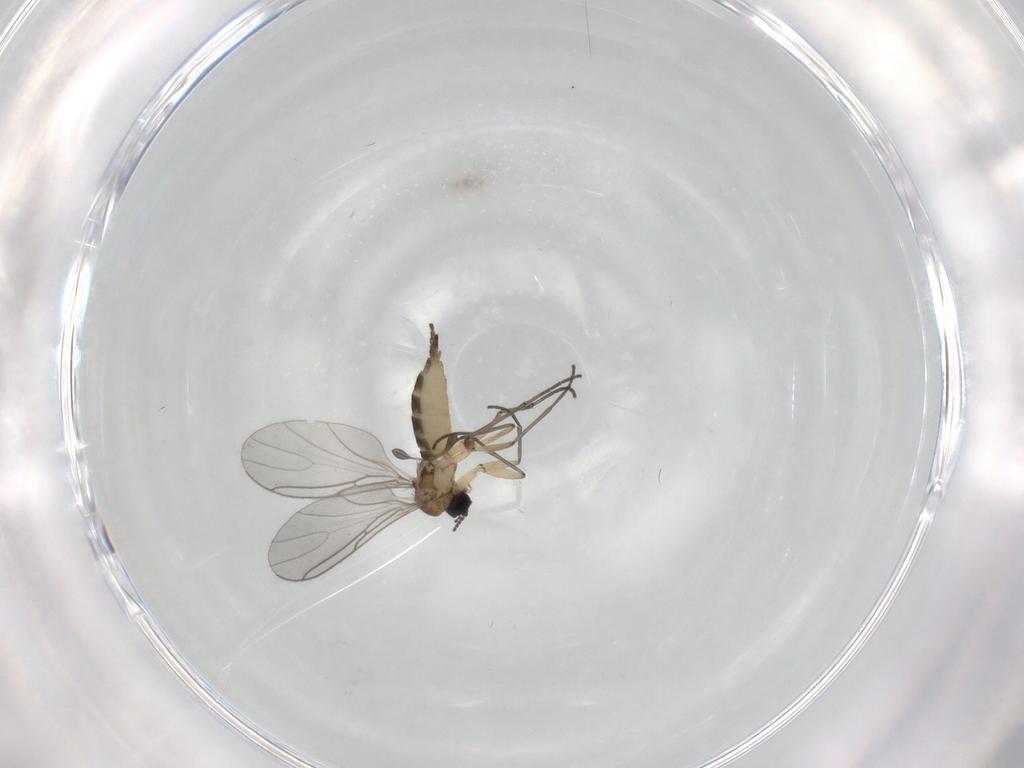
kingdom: Animalia
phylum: Arthropoda
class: Insecta
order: Diptera
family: Sciaridae
